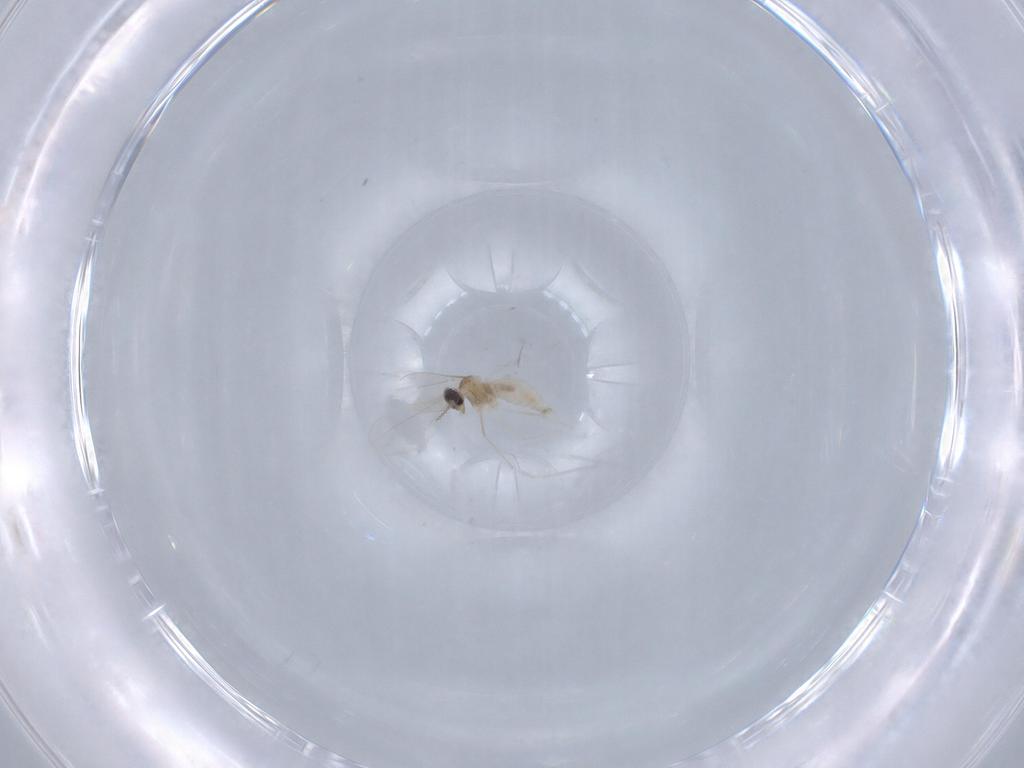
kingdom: Animalia
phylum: Arthropoda
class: Insecta
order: Diptera
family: Cecidomyiidae
